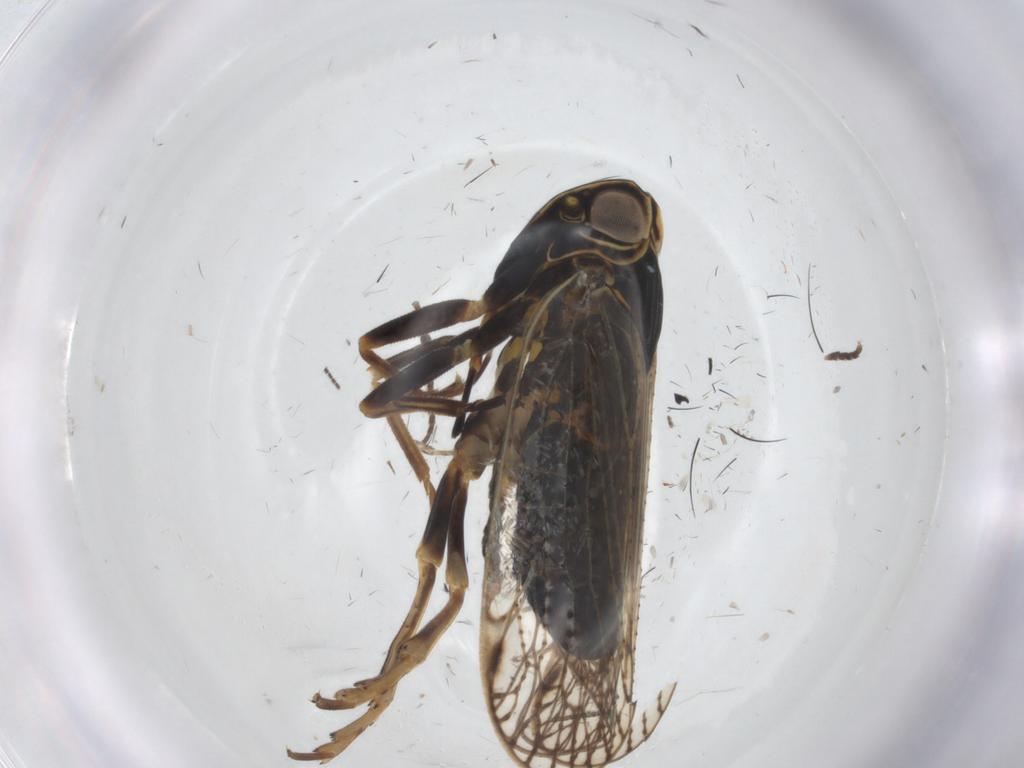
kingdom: Animalia
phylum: Arthropoda
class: Insecta
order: Hemiptera
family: Cixiidae
